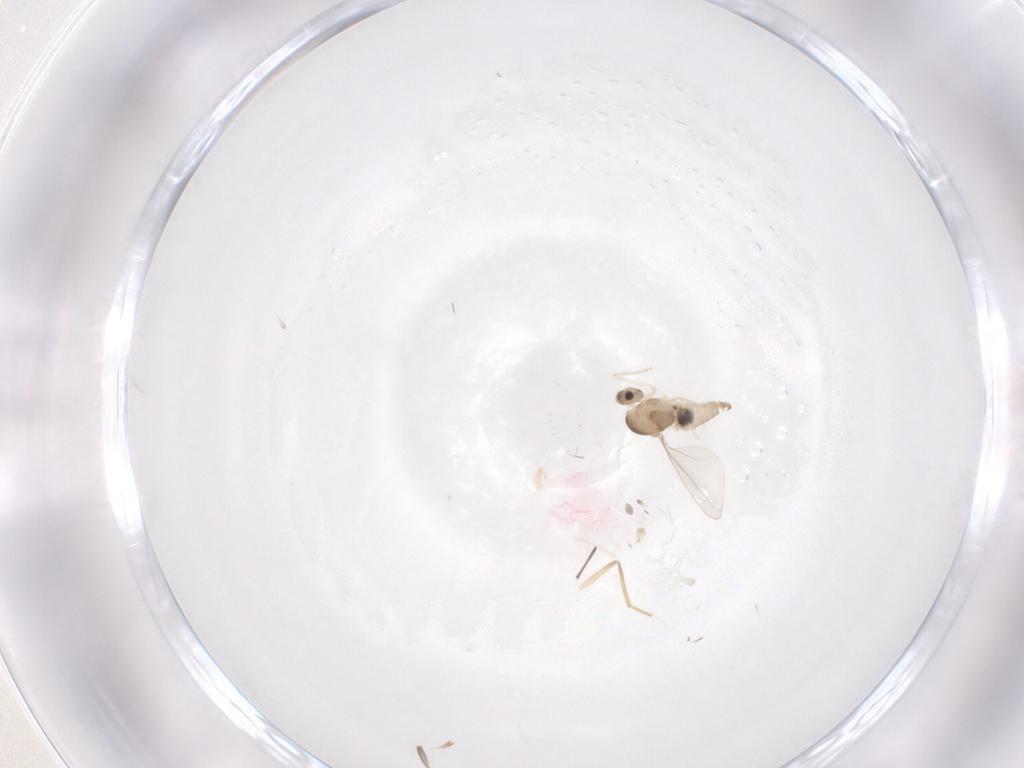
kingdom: Animalia
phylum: Arthropoda
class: Insecta
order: Diptera
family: Cecidomyiidae
